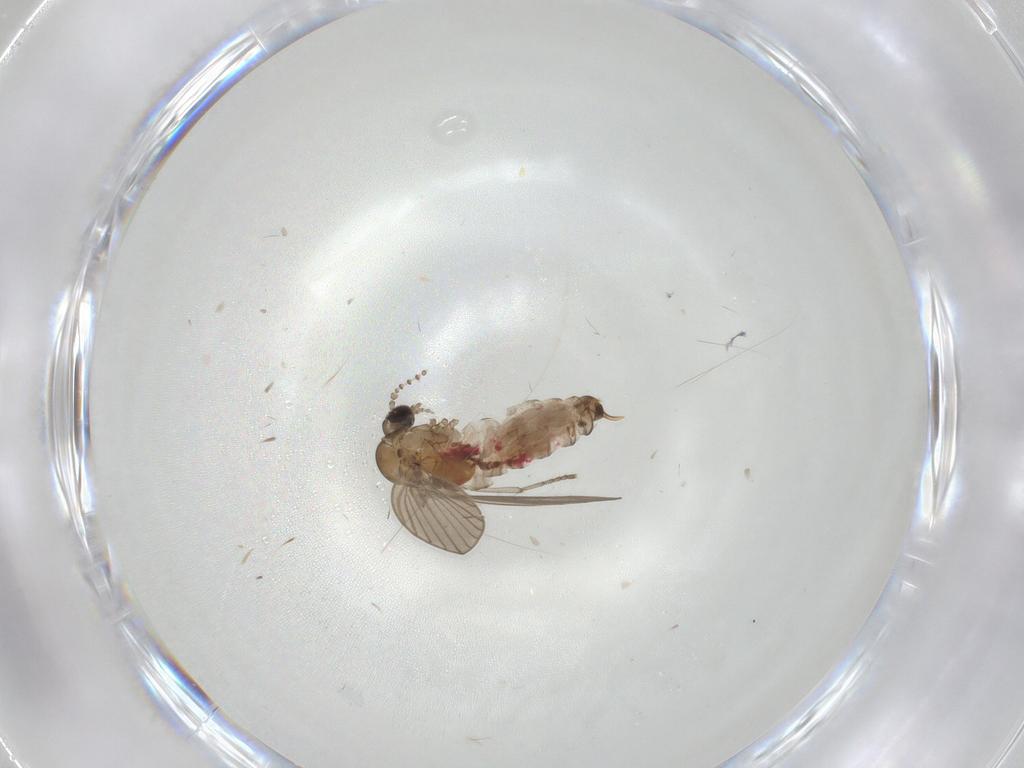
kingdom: Animalia
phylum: Arthropoda
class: Insecta
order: Diptera
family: Psychodidae
